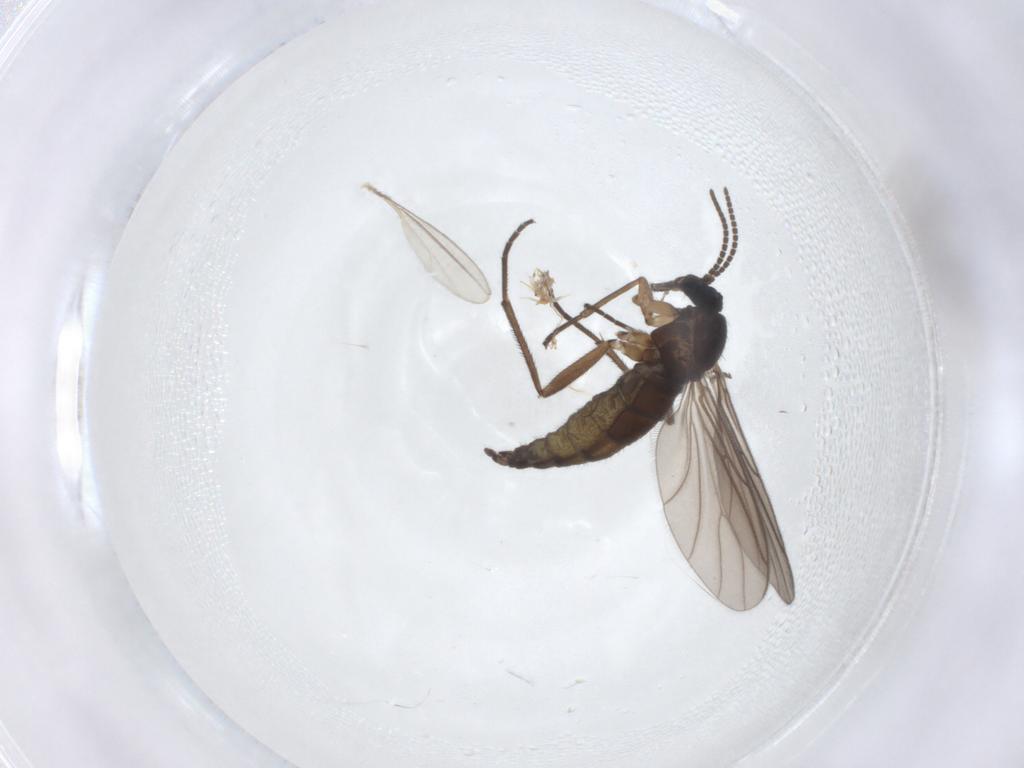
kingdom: Animalia
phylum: Arthropoda
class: Insecta
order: Diptera
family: Sciaridae
